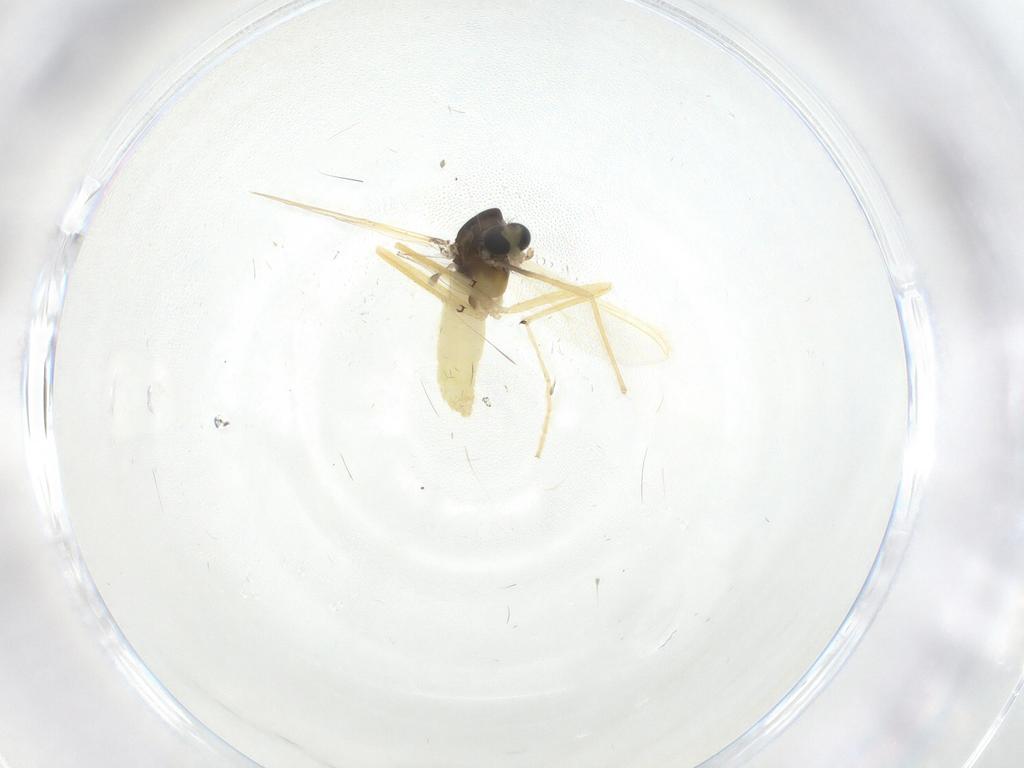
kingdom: Animalia
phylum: Arthropoda
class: Insecta
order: Diptera
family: Chironomidae
